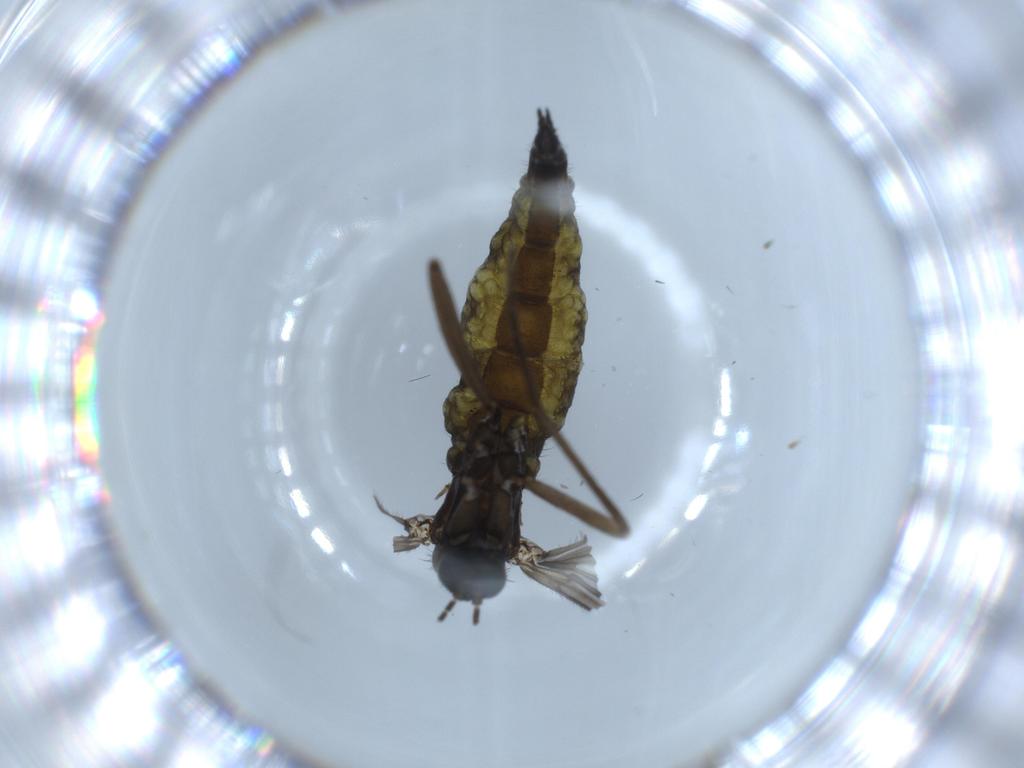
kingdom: Animalia
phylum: Arthropoda
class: Insecta
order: Diptera
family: Sciaridae
